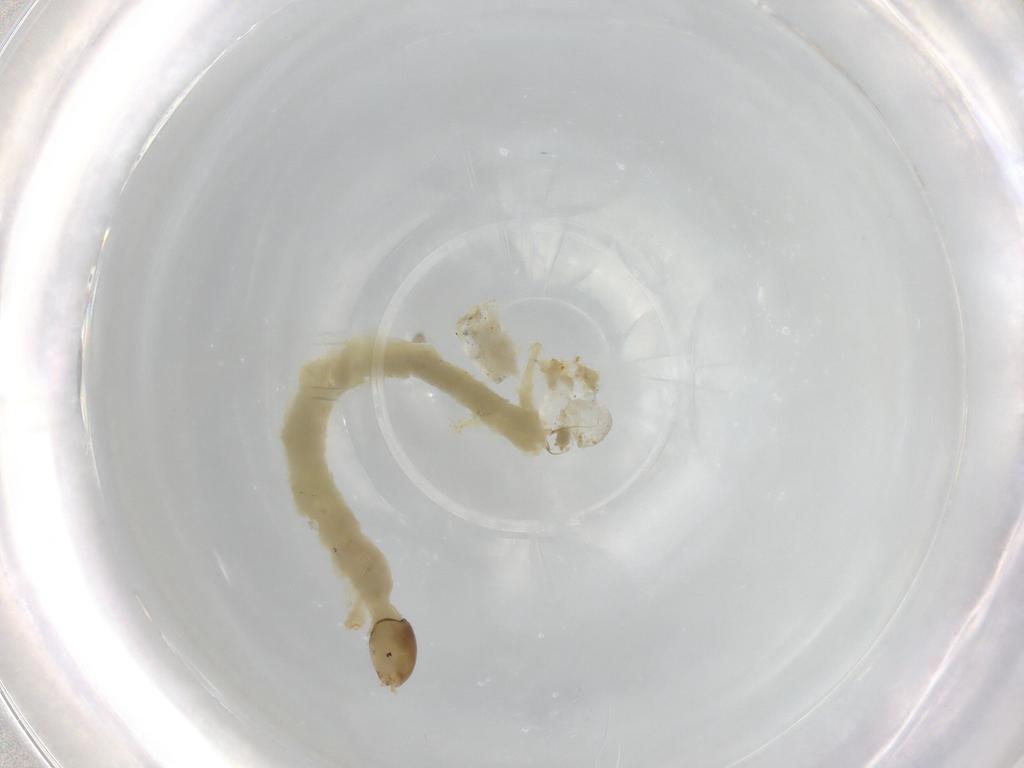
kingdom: Animalia
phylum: Arthropoda
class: Insecta
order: Diptera
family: Chironomidae
